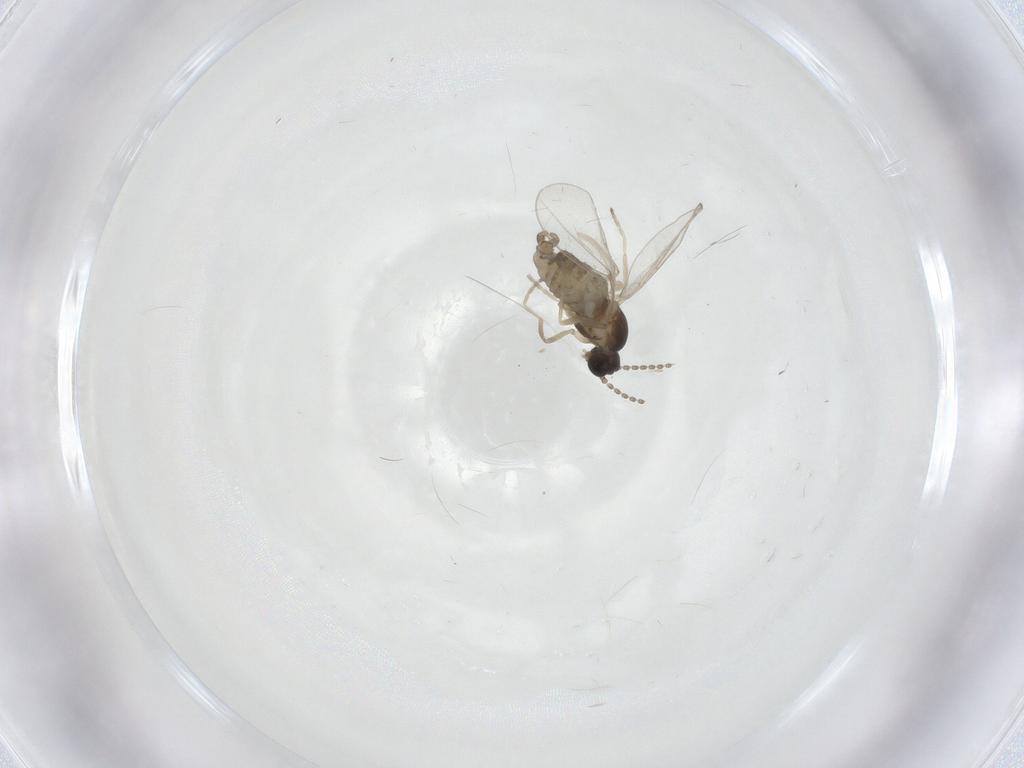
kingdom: Animalia
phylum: Arthropoda
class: Insecta
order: Diptera
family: Chironomidae
